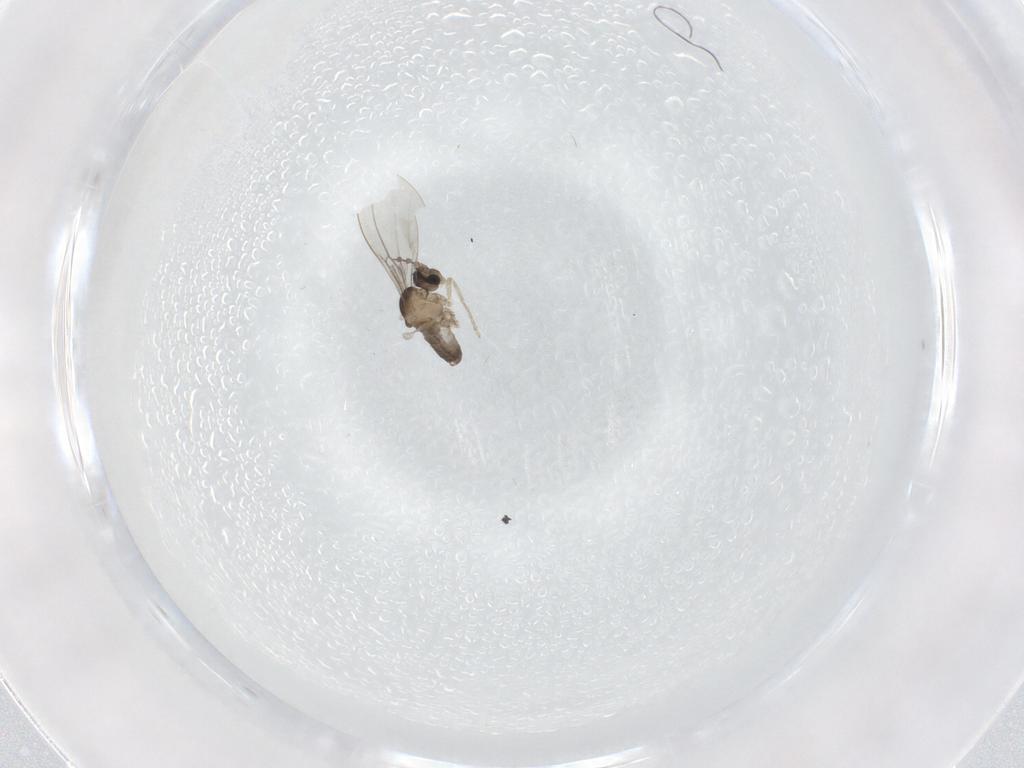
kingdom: Animalia
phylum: Arthropoda
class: Insecta
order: Diptera
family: Cecidomyiidae
